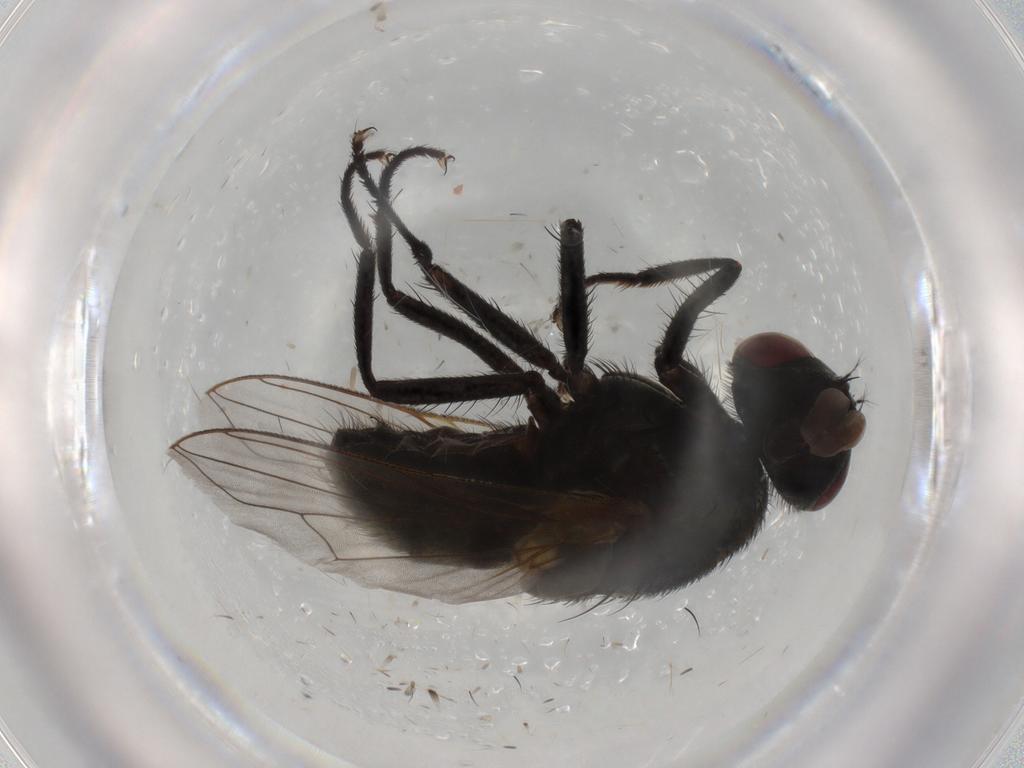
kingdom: Animalia
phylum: Arthropoda
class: Insecta
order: Diptera
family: Muscidae
